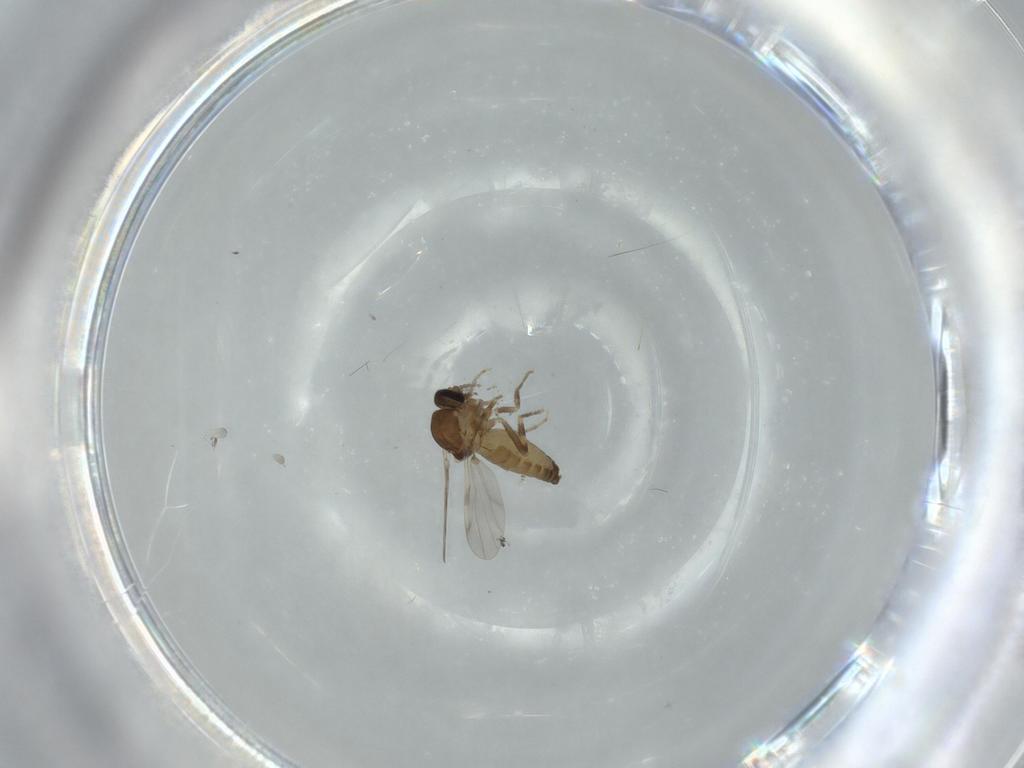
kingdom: Animalia
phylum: Arthropoda
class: Insecta
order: Diptera
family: Ceratopogonidae
